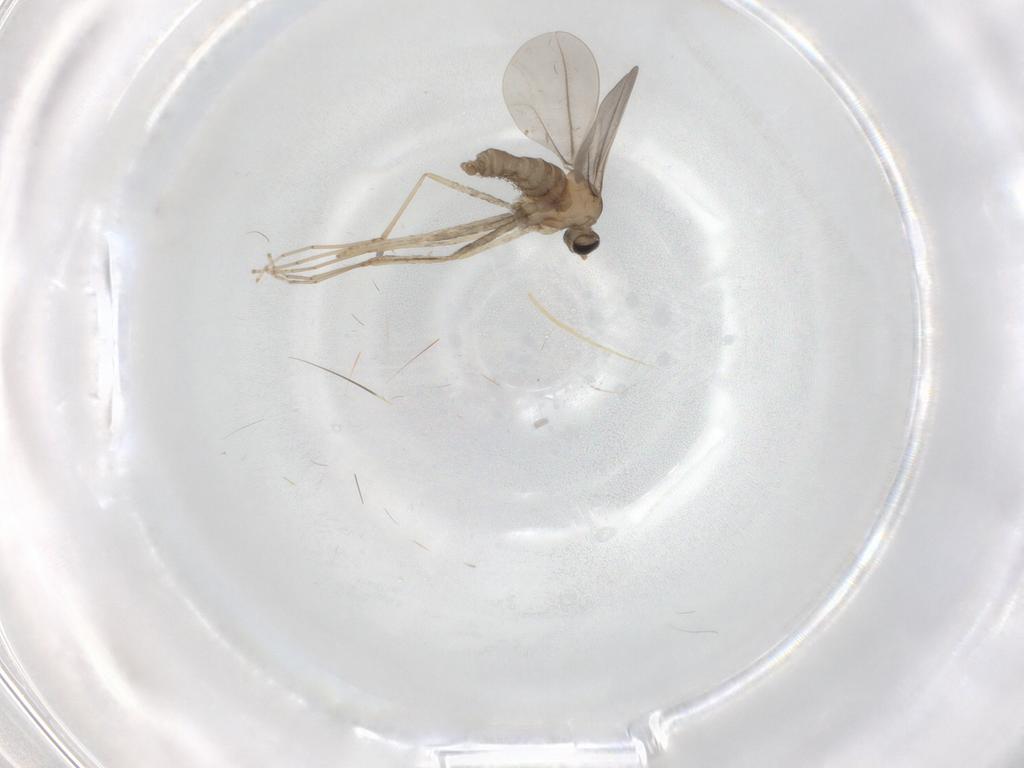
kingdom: Animalia
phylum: Arthropoda
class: Insecta
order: Diptera
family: Cecidomyiidae
